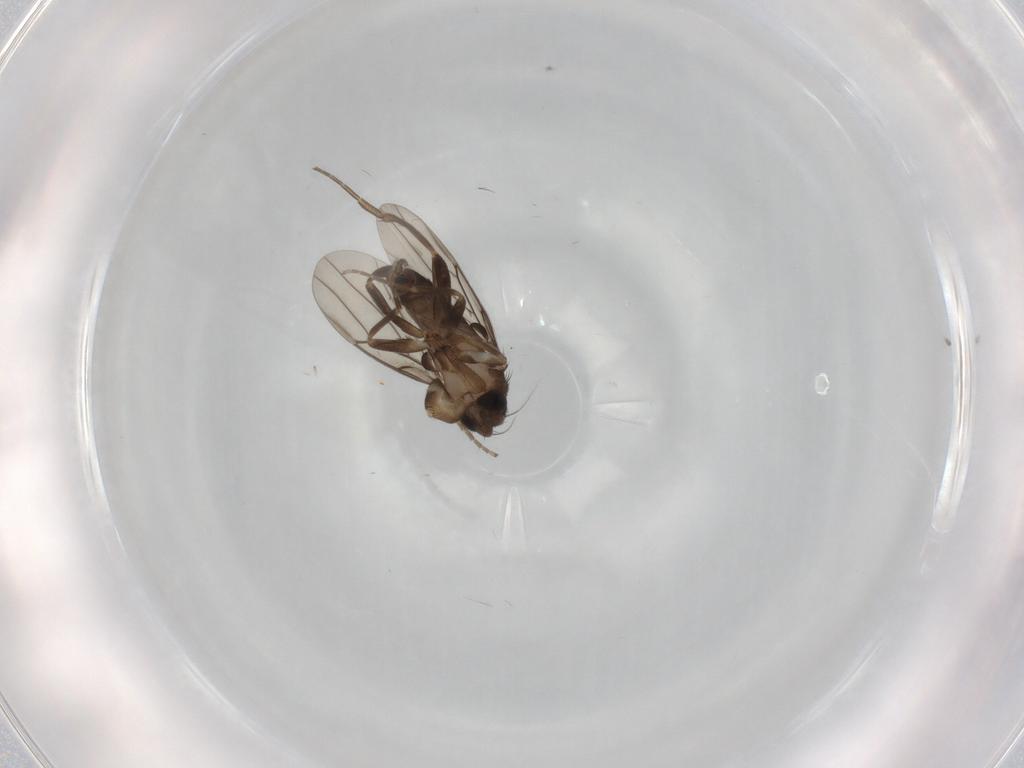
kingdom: Animalia
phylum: Arthropoda
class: Insecta
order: Diptera
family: Phoridae
